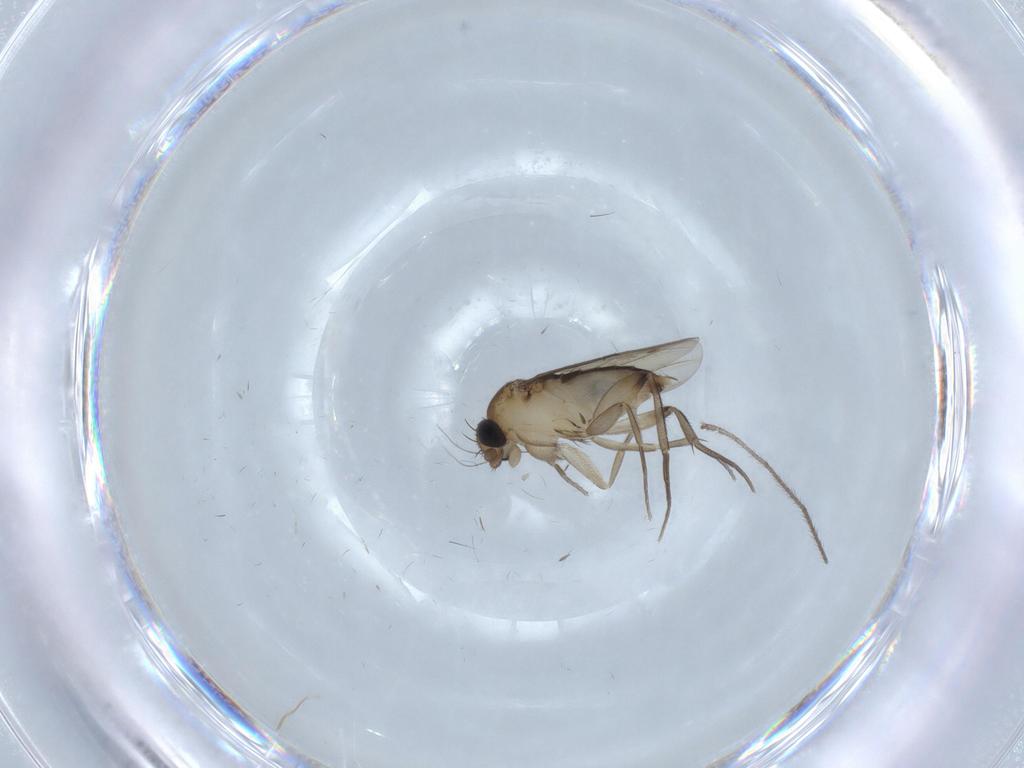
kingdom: Animalia
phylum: Arthropoda
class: Insecta
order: Diptera
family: Phoridae
